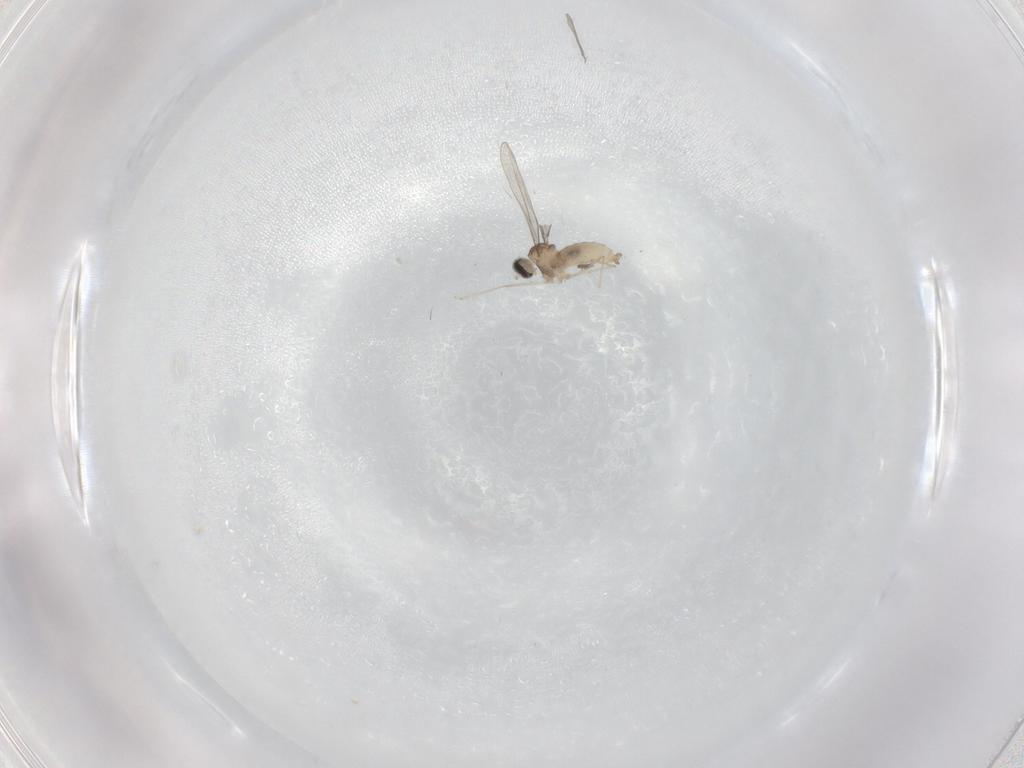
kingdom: Animalia
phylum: Arthropoda
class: Insecta
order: Diptera
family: Cecidomyiidae
